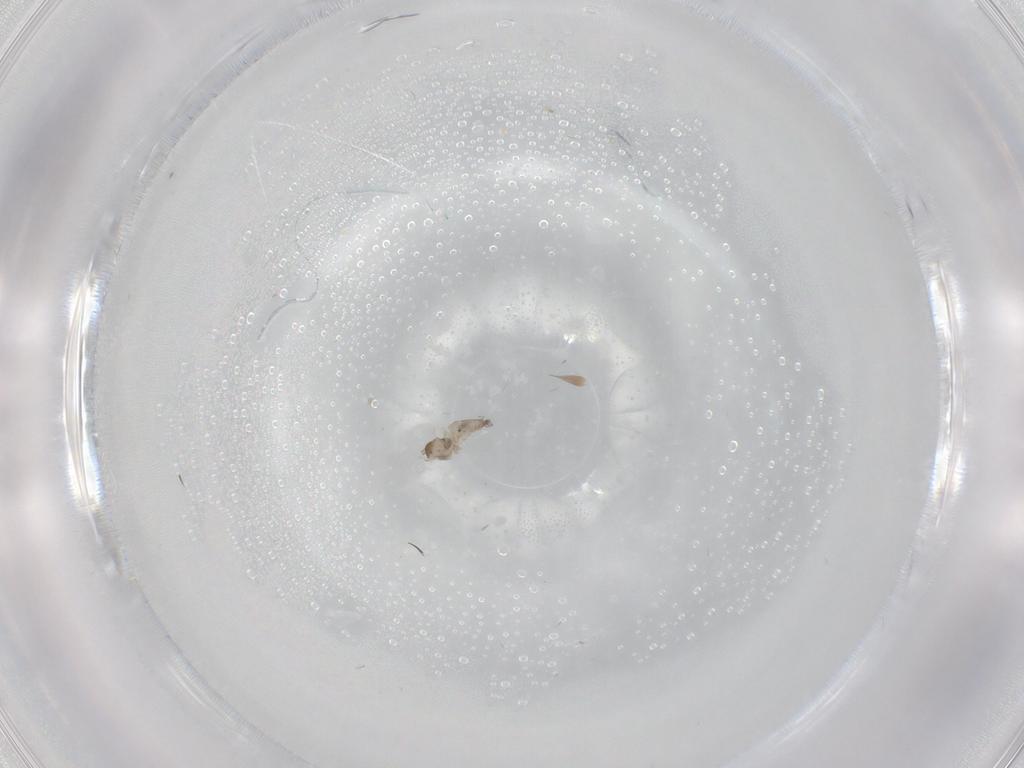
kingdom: Animalia
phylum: Arthropoda
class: Insecta
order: Diptera
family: Cecidomyiidae
